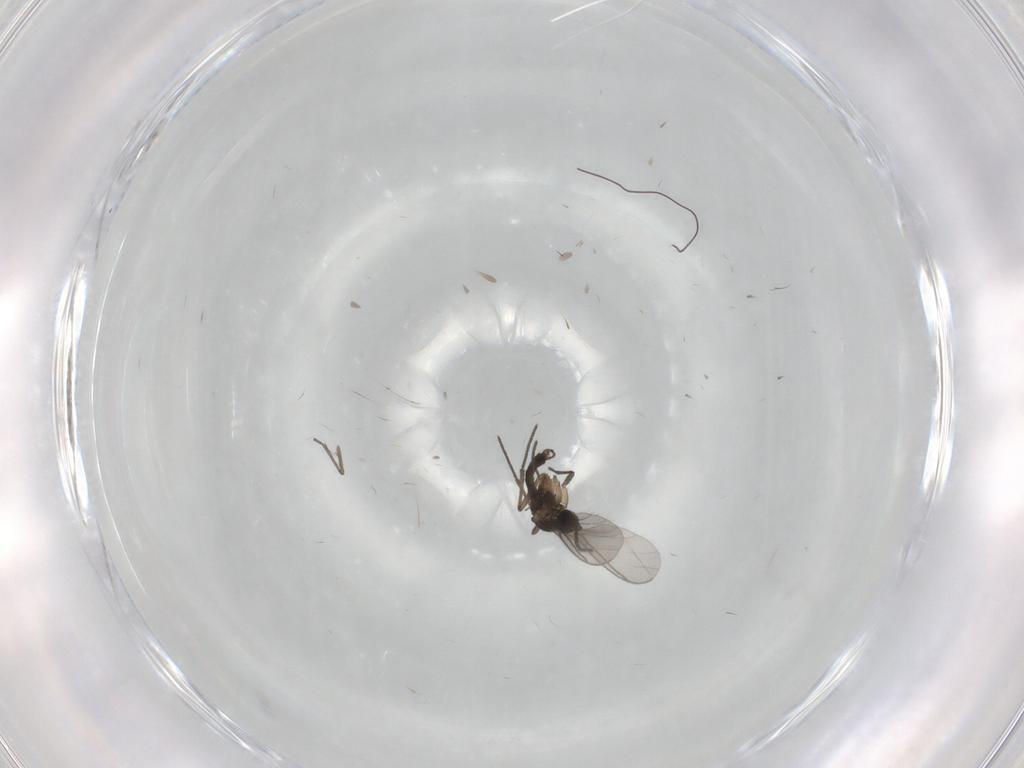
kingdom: Animalia
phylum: Arthropoda
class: Insecta
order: Diptera
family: Sciaridae
